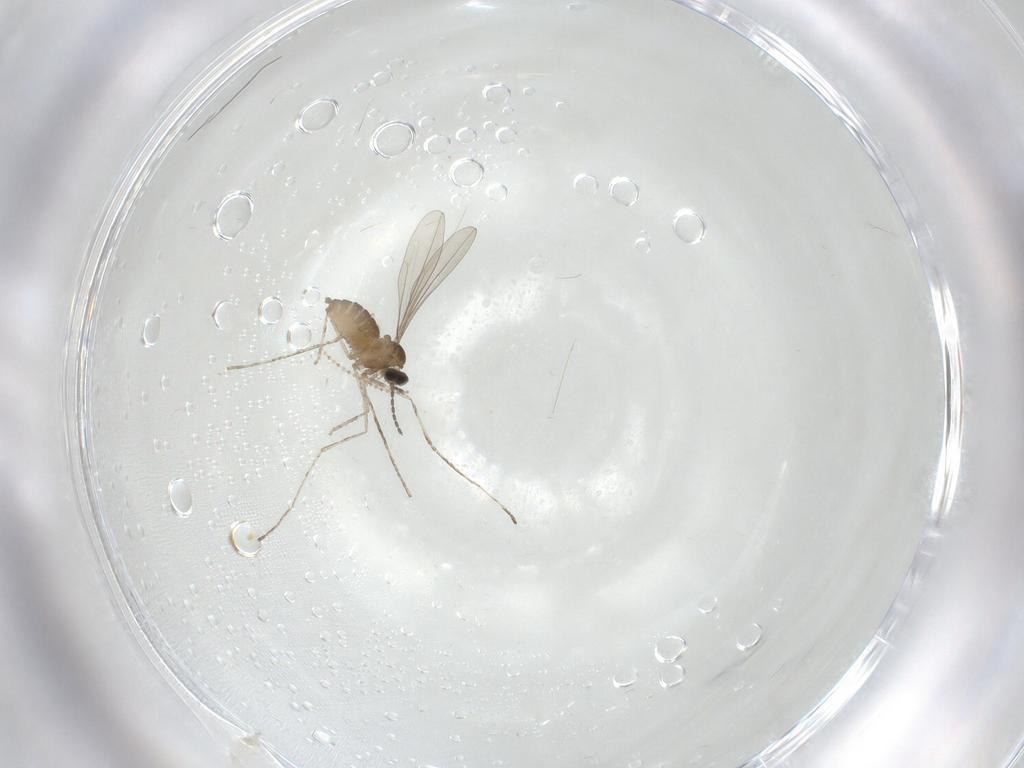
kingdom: Animalia
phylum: Arthropoda
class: Insecta
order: Diptera
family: Cecidomyiidae
